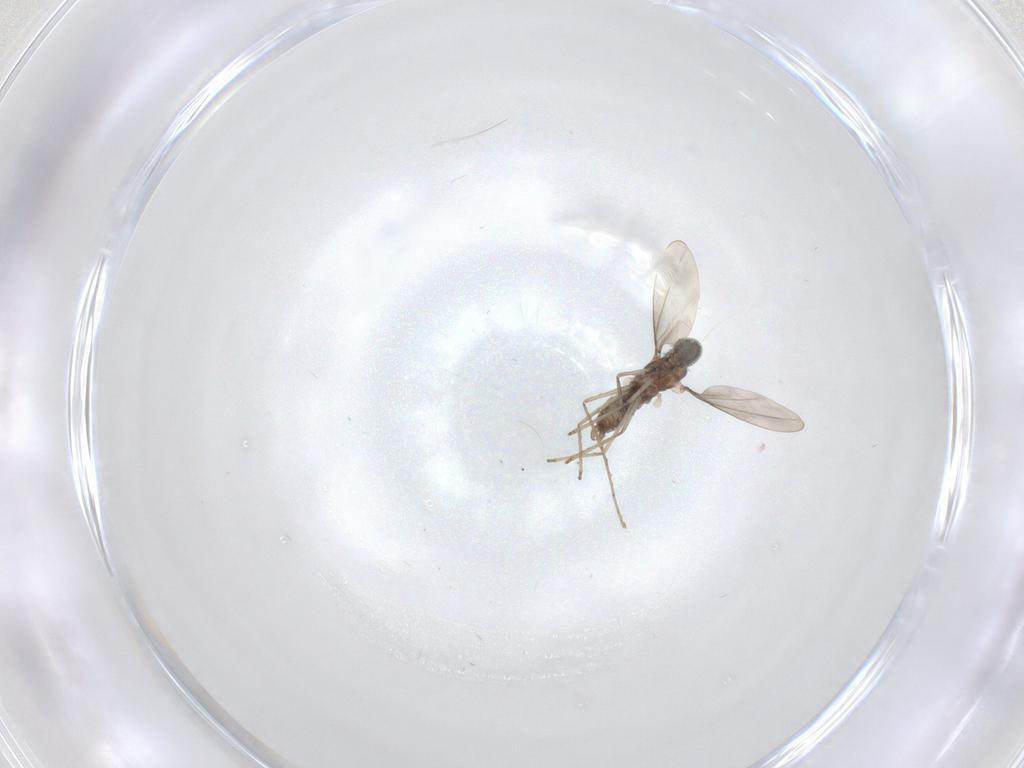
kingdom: Animalia
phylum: Arthropoda
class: Insecta
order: Diptera
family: Cecidomyiidae
